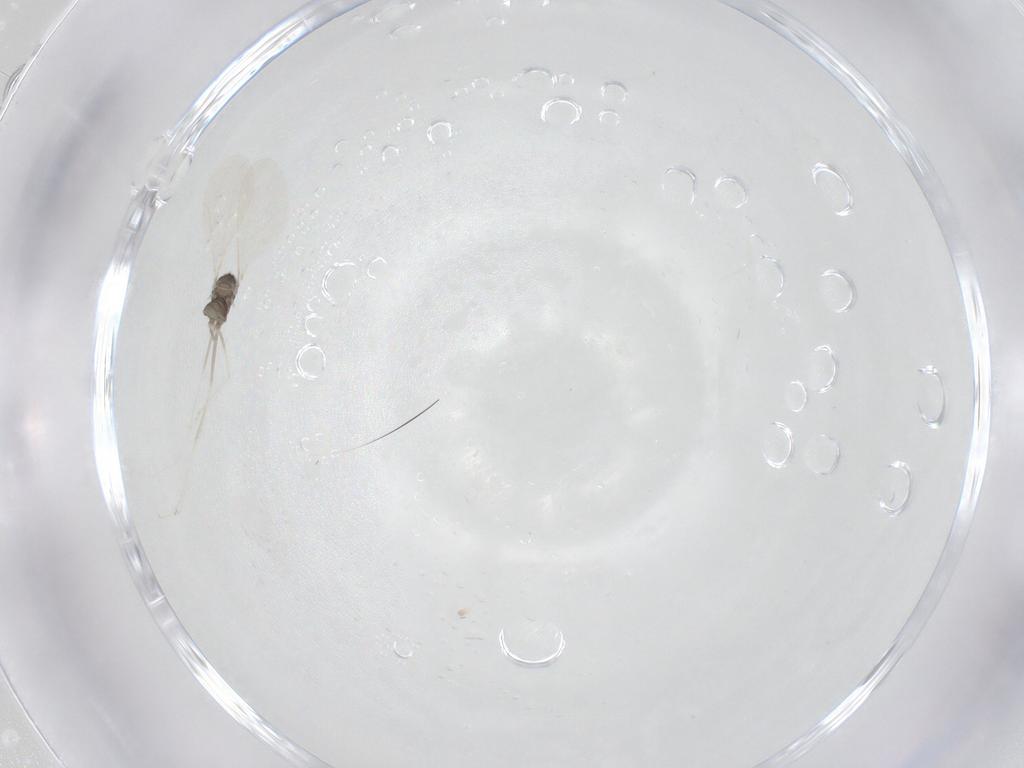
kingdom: Animalia
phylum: Arthropoda
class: Insecta
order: Diptera
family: Cecidomyiidae
